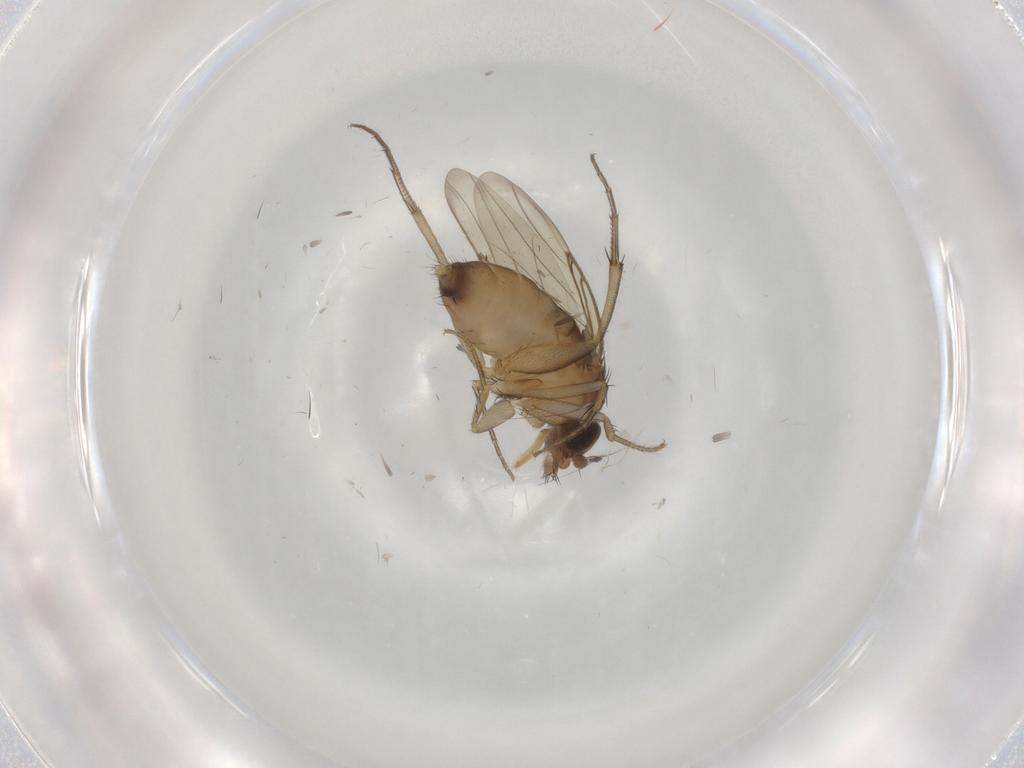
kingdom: Animalia
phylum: Arthropoda
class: Insecta
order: Diptera
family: Phoridae
